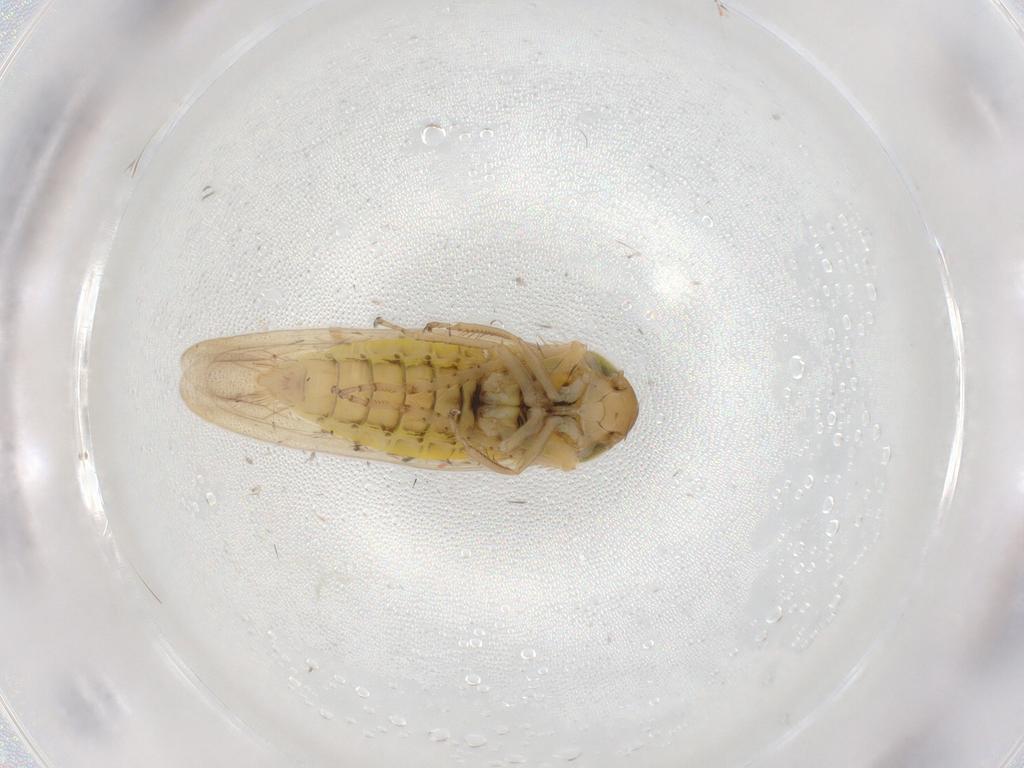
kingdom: Animalia
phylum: Arthropoda
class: Insecta
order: Hemiptera
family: Cicadellidae
